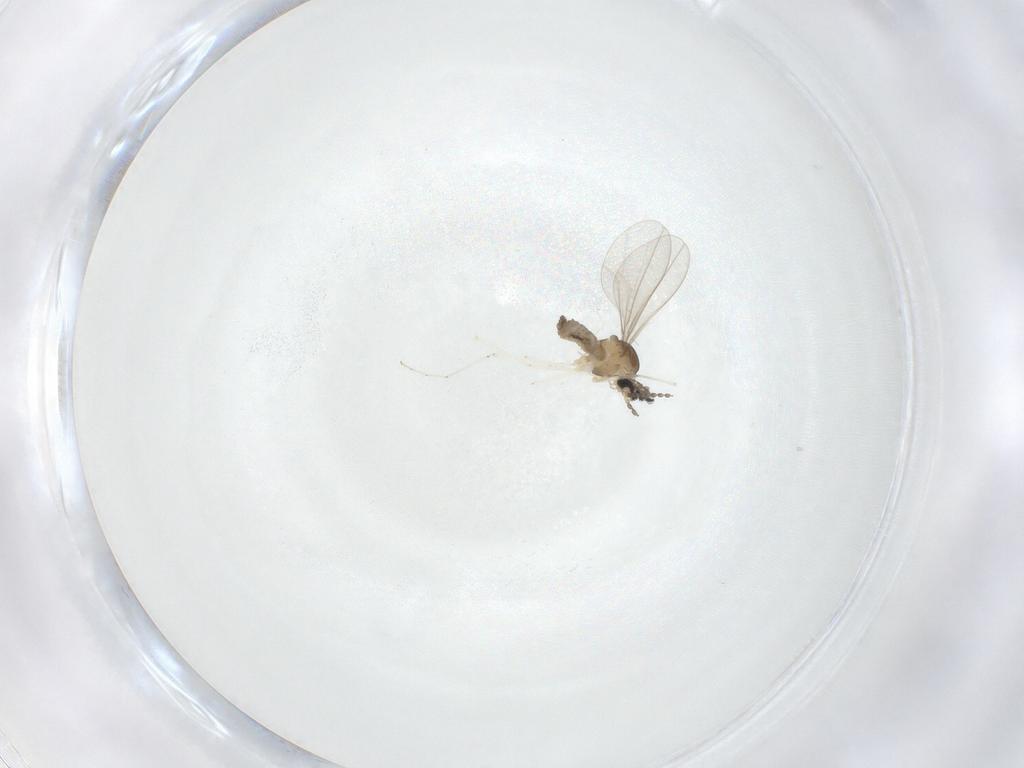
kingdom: Animalia
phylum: Arthropoda
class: Insecta
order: Diptera
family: Cecidomyiidae
